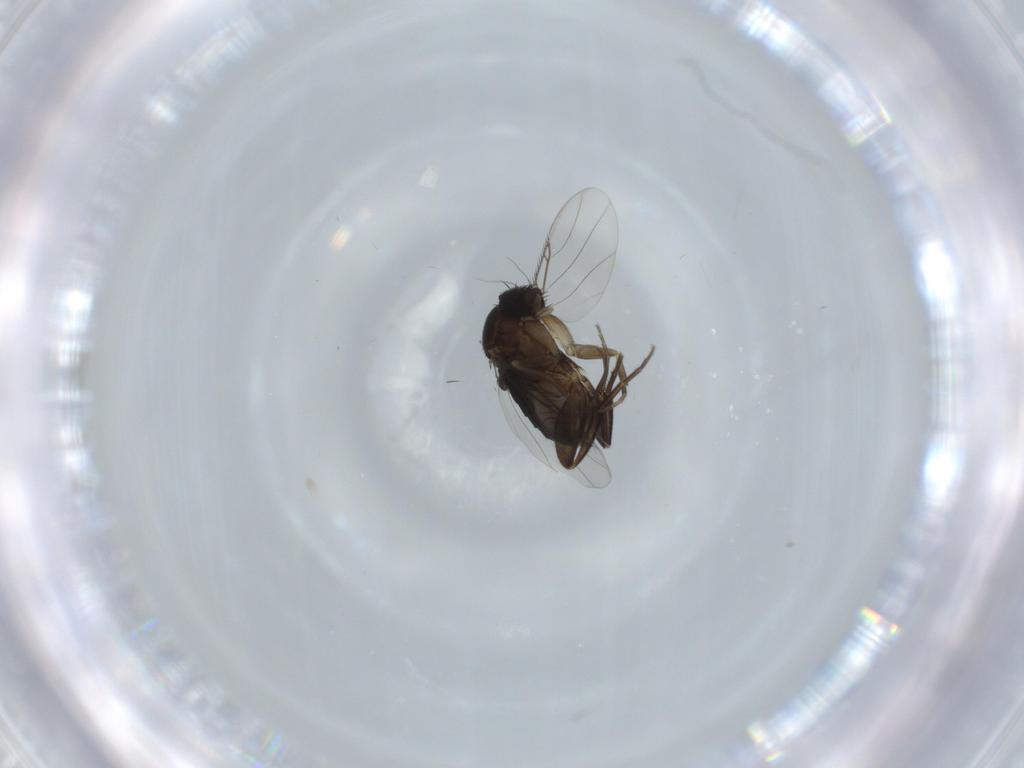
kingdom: Animalia
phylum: Arthropoda
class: Insecta
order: Diptera
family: Phoridae
